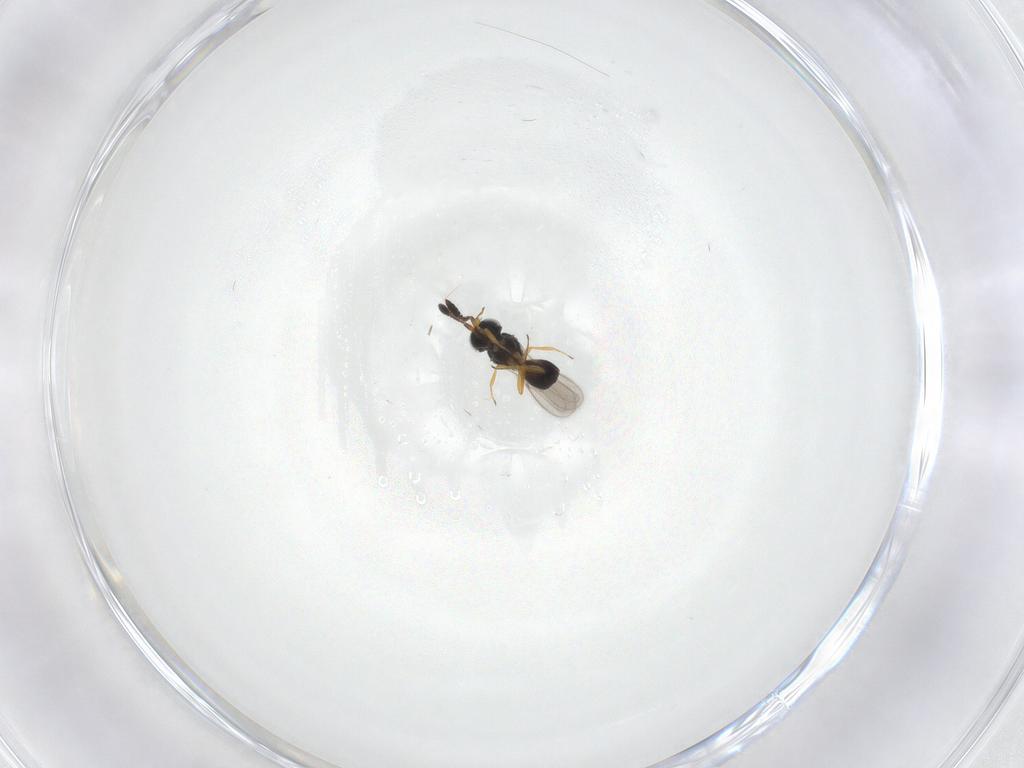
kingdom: Animalia
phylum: Arthropoda
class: Insecta
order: Hymenoptera
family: Scelionidae
